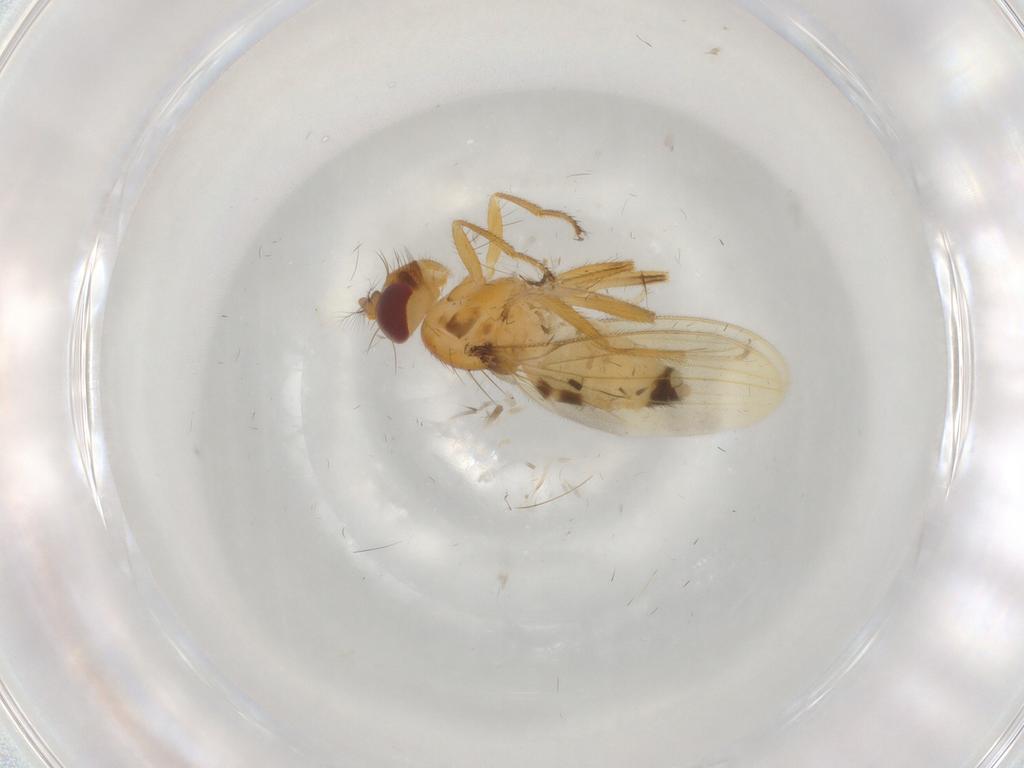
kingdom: Animalia
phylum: Arthropoda
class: Insecta
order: Diptera
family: Periscelididae
